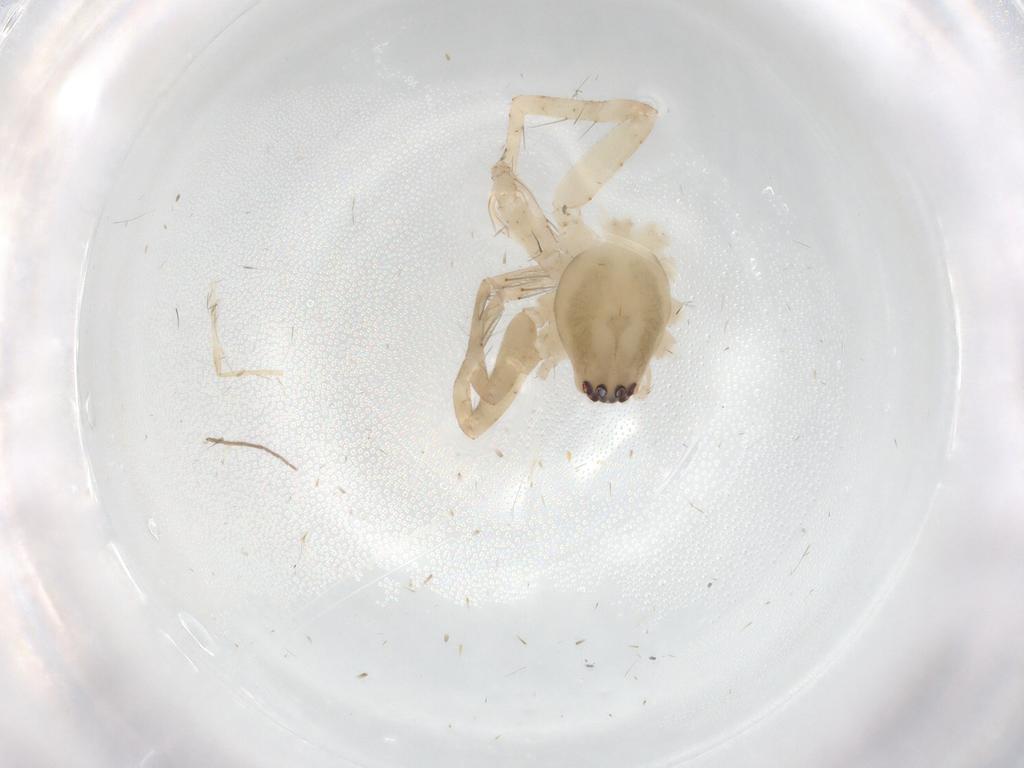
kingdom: Animalia
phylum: Arthropoda
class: Arachnida
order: Araneae
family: Anyphaenidae
